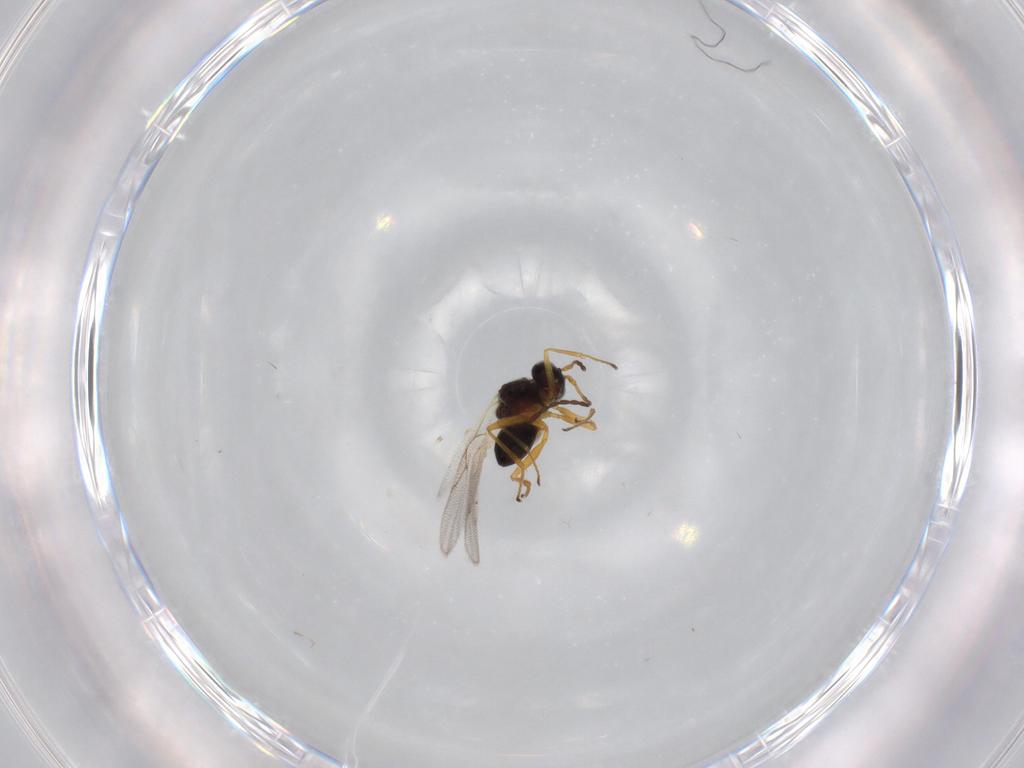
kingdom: Animalia
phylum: Arthropoda
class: Insecta
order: Hymenoptera
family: Figitidae
